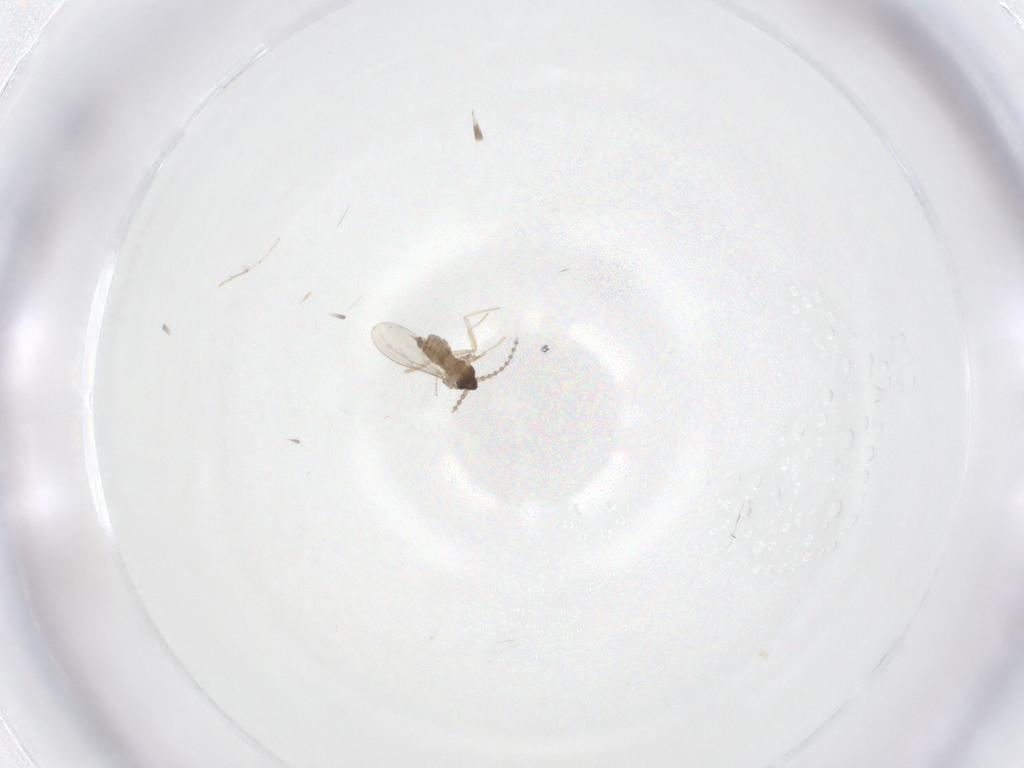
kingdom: Animalia
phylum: Arthropoda
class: Insecta
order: Diptera
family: Cecidomyiidae
